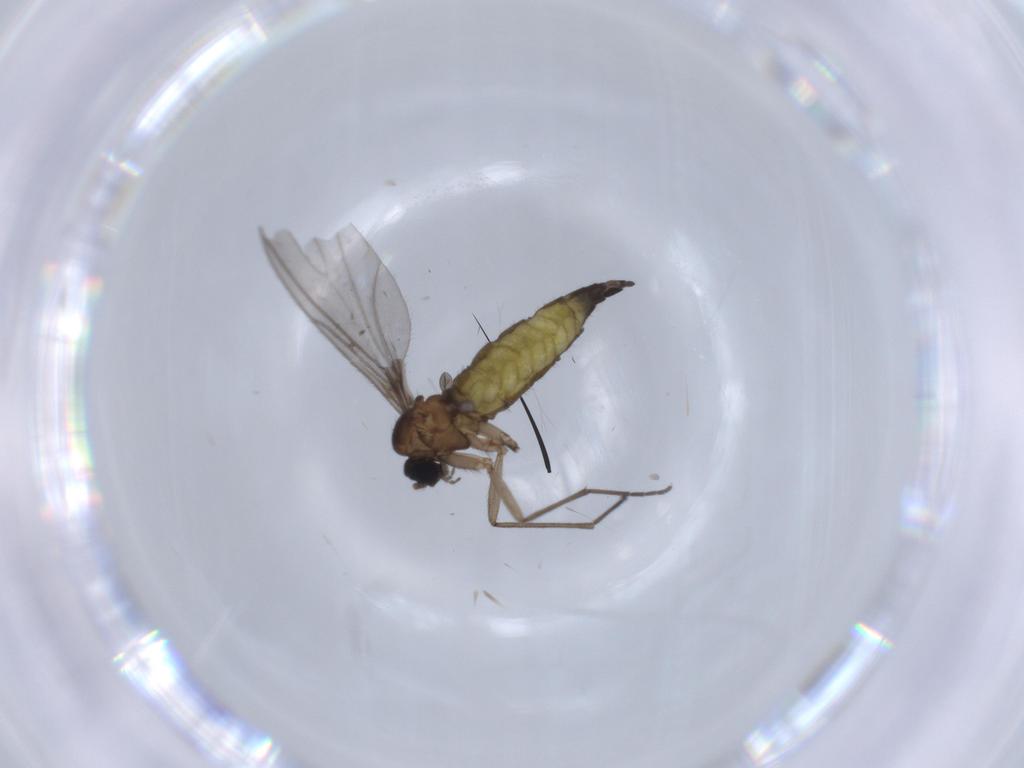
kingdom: Animalia
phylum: Arthropoda
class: Insecta
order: Diptera
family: Sciaridae
